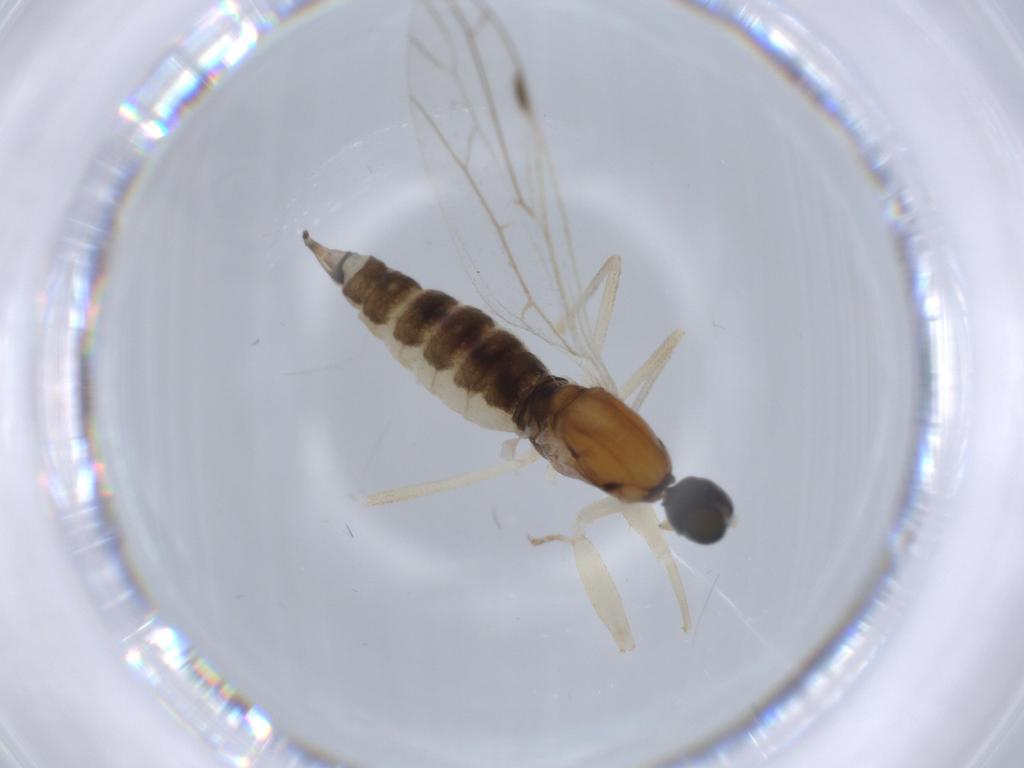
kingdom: Animalia
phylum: Arthropoda
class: Insecta
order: Diptera
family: Empididae
